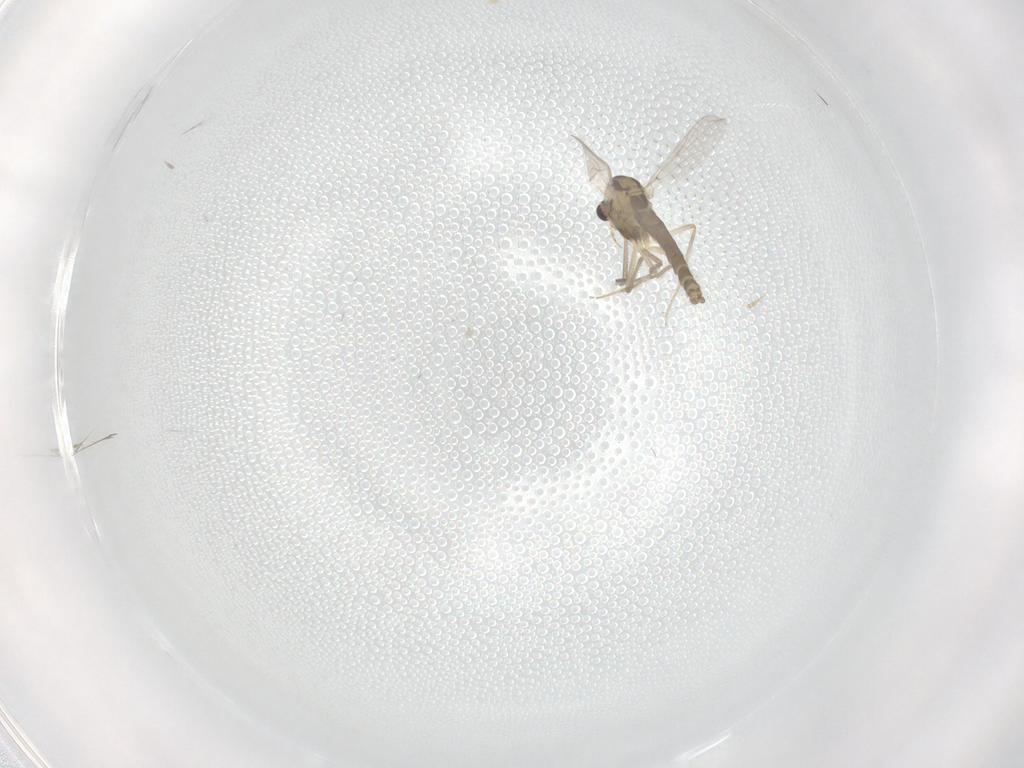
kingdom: Animalia
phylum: Arthropoda
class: Insecta
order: Diptera
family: Chironomidae
